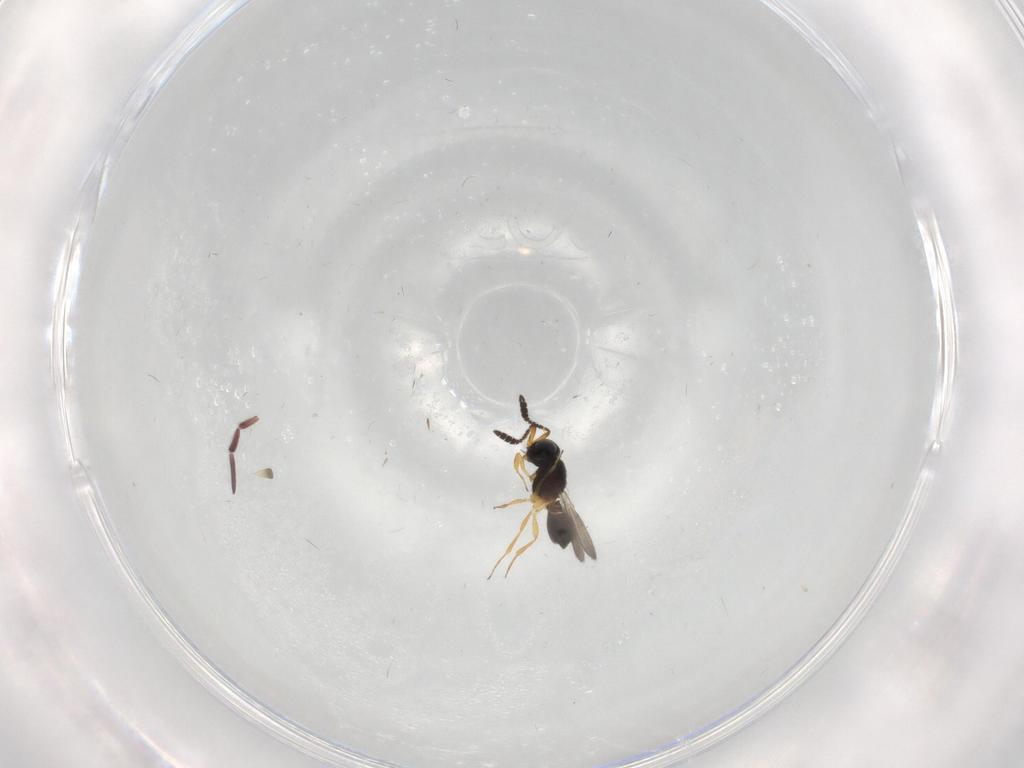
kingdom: Animalia
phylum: Arthropoda
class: Insecta
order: Hymenoptera
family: Scelionidae
